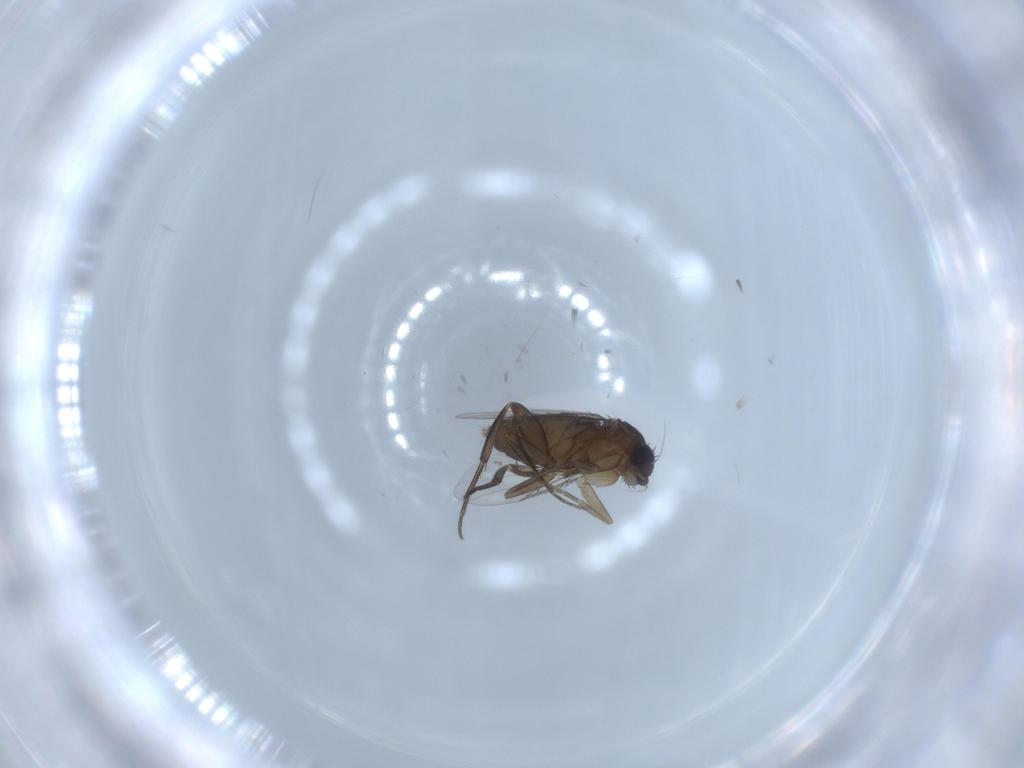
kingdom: Animalia
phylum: Arthropoda
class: Insecta
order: Diptera
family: Phoridae
